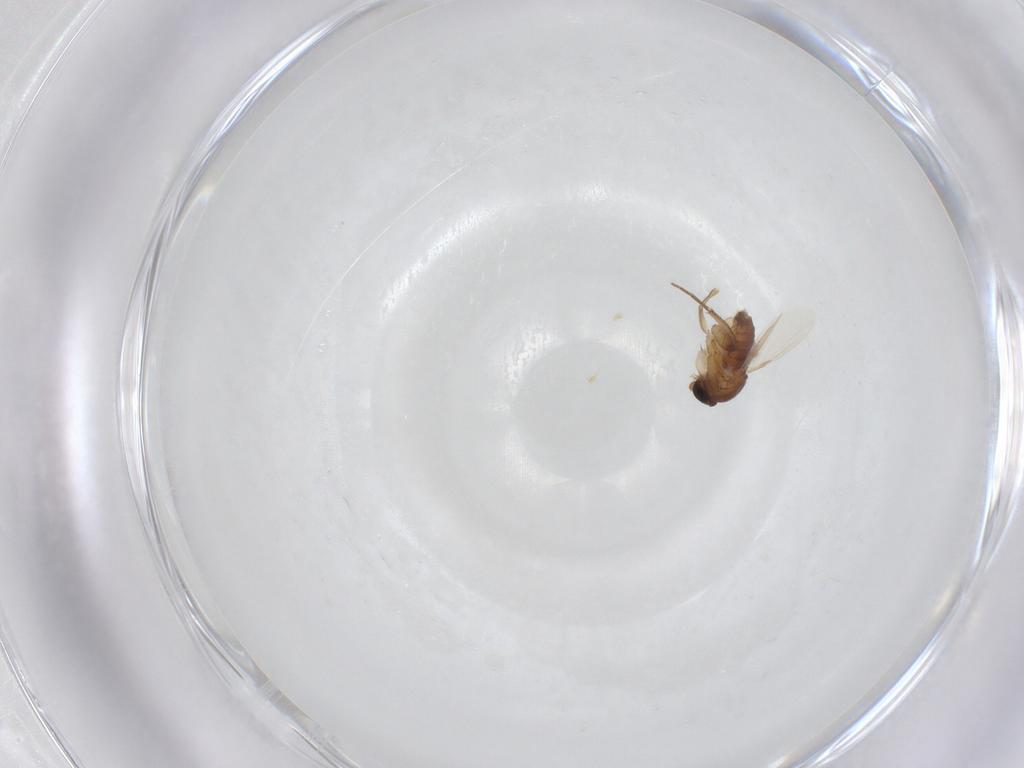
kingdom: Animalia
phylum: Arthropoda
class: Insecta
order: Diptera
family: Phoridae
